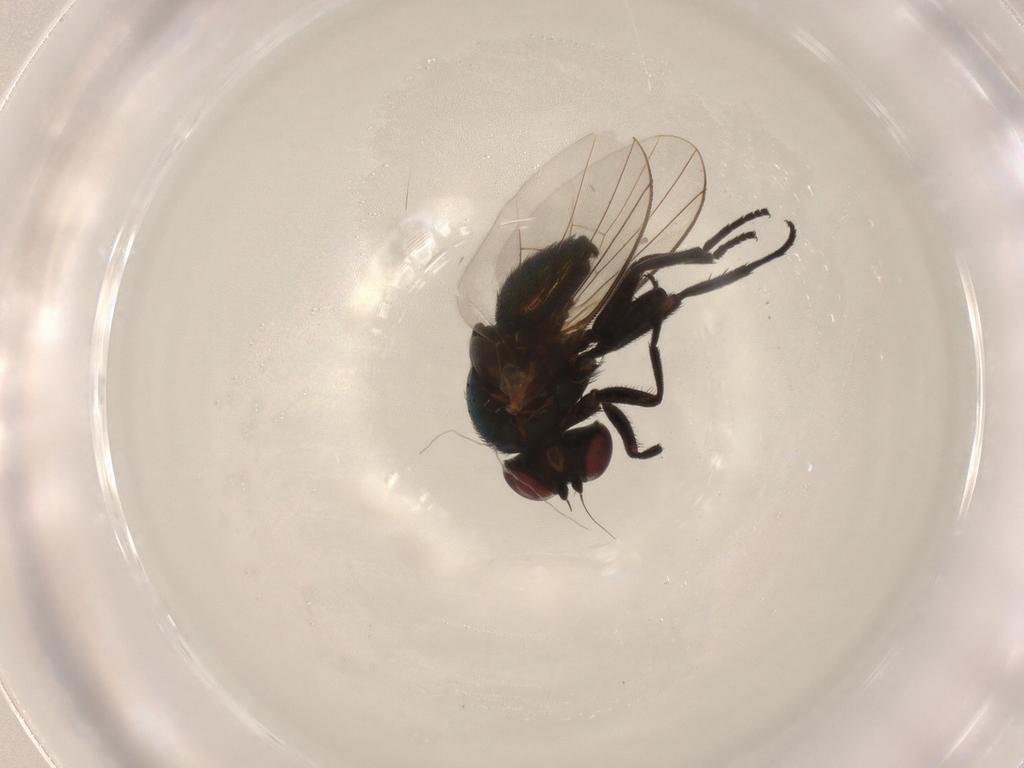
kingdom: Animalia
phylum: Arthropoda
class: Insecta
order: Diptera
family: Agromyzidae
